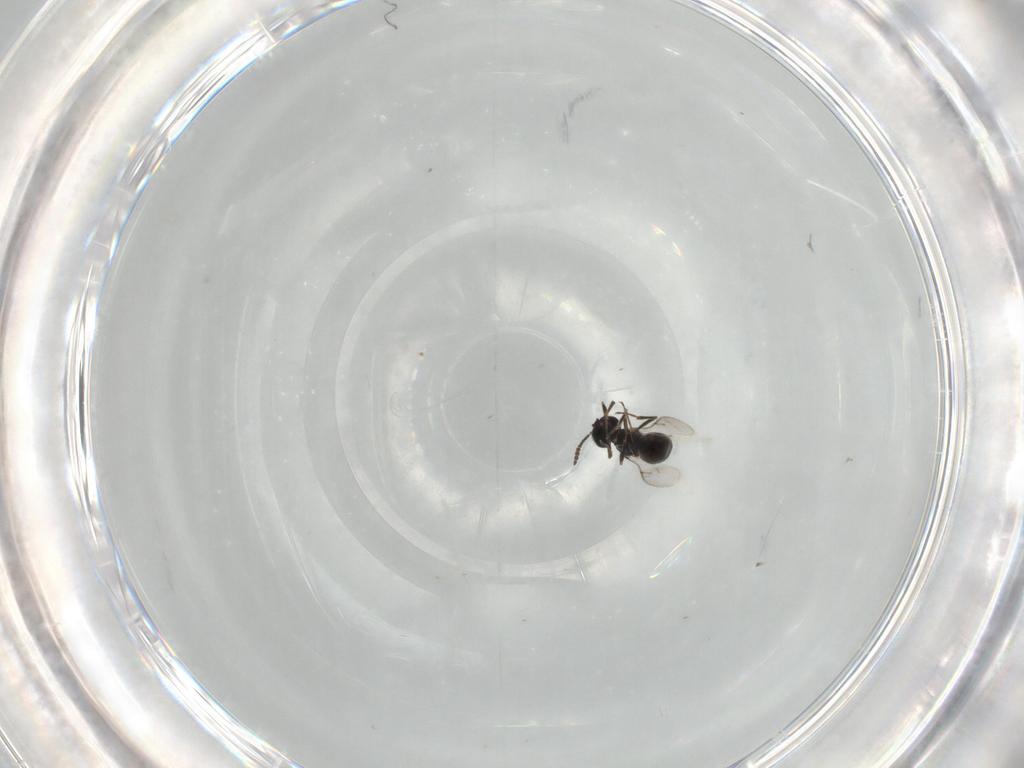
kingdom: Animalia
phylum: Arthropoda
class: Insecta
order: Hymenoptera
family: Scelionidae
